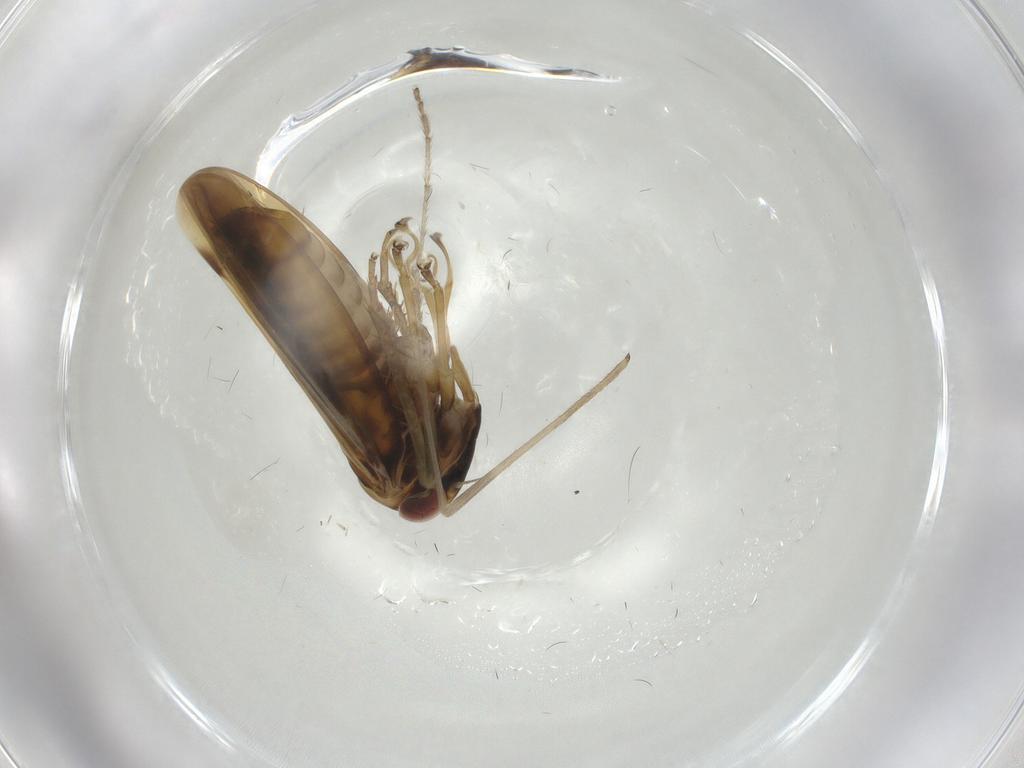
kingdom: Animalia
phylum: Arthropoda
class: Insecta
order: Hemiptera
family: Cicadellidae
